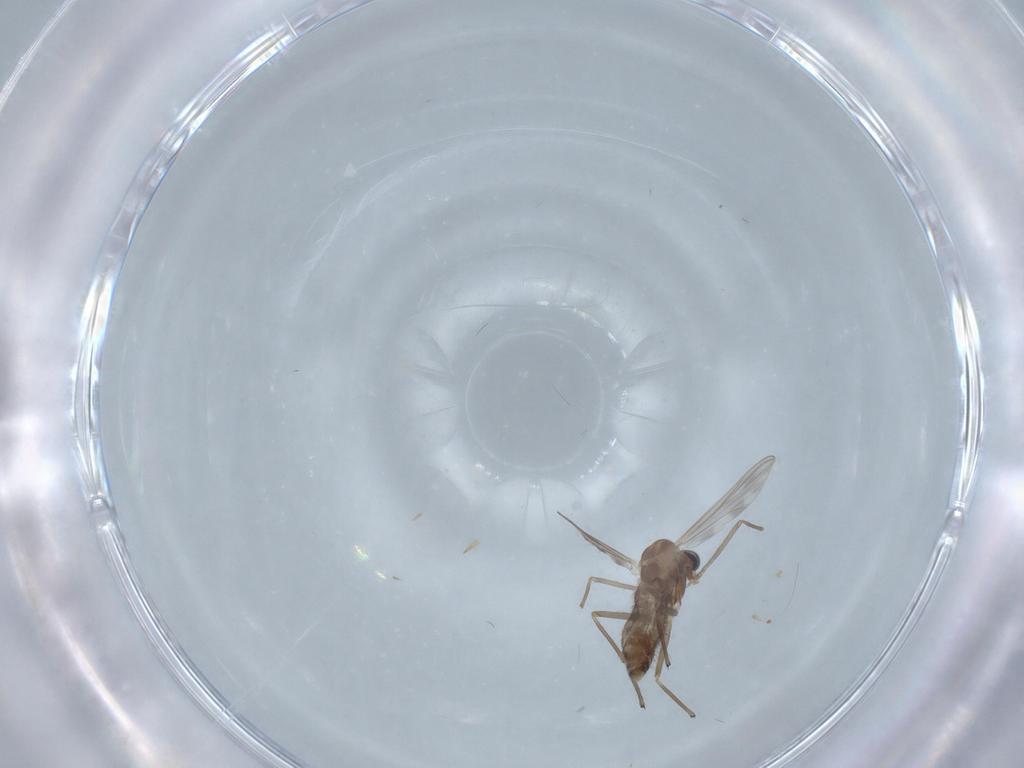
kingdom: Animalia
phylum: Arthropoda
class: Insecta
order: Diptera
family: Chironomidae
